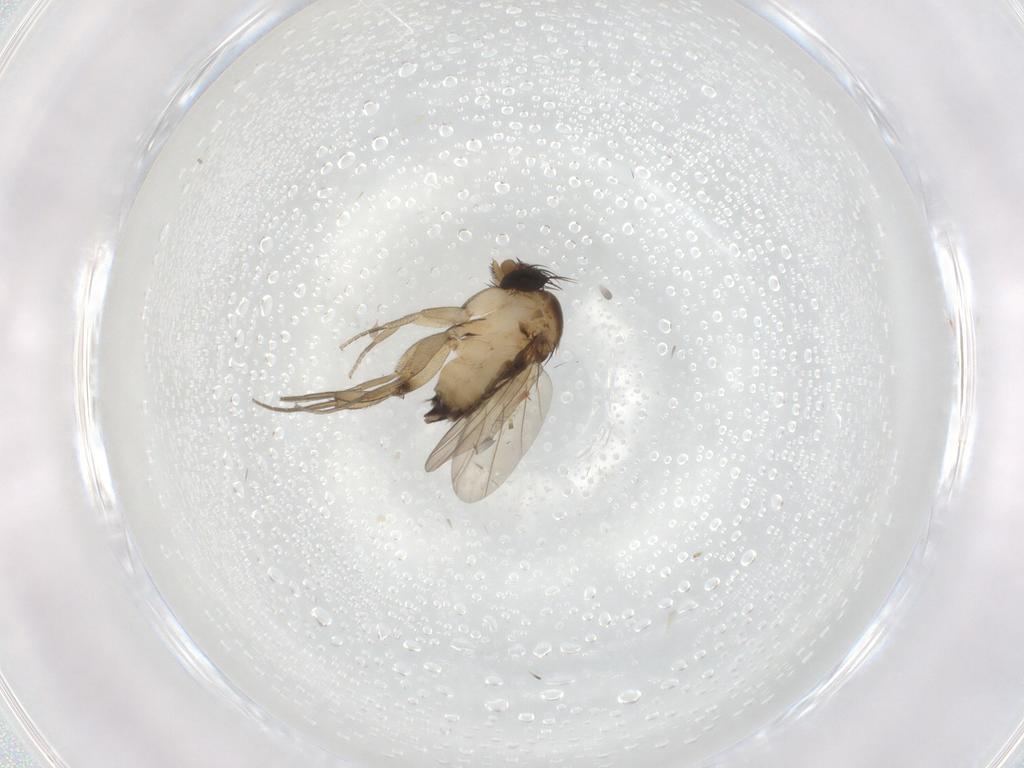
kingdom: Animalia
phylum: Arthropoda
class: Insecta
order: Diptera
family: Phoridae
